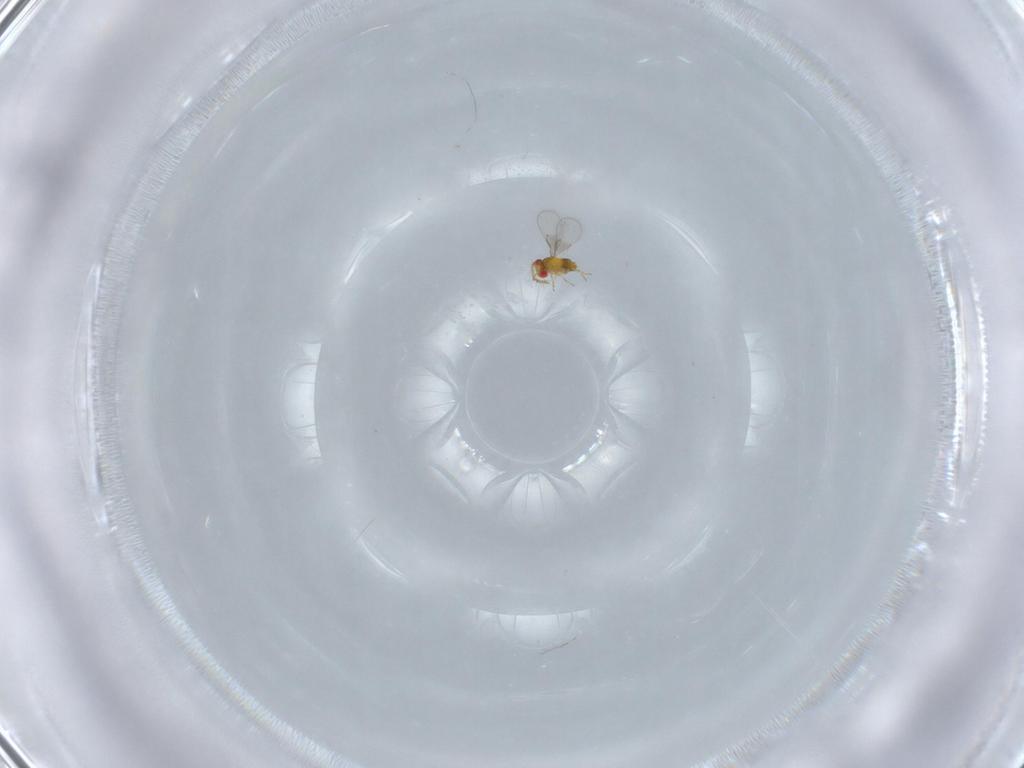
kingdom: Animalia
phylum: Arthropoda
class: Insecta
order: Hymenoptera
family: Trichogrammatidae
